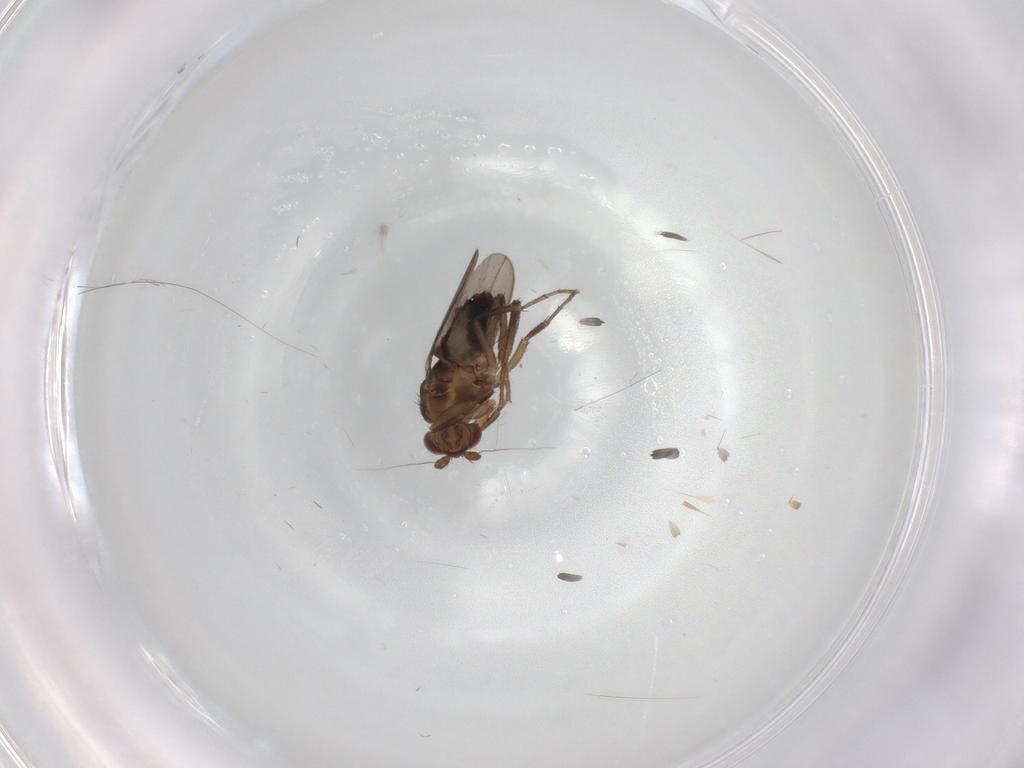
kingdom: Animalia
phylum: Arthropoda
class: Insecta
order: Diptera
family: Sphaeroceridae
